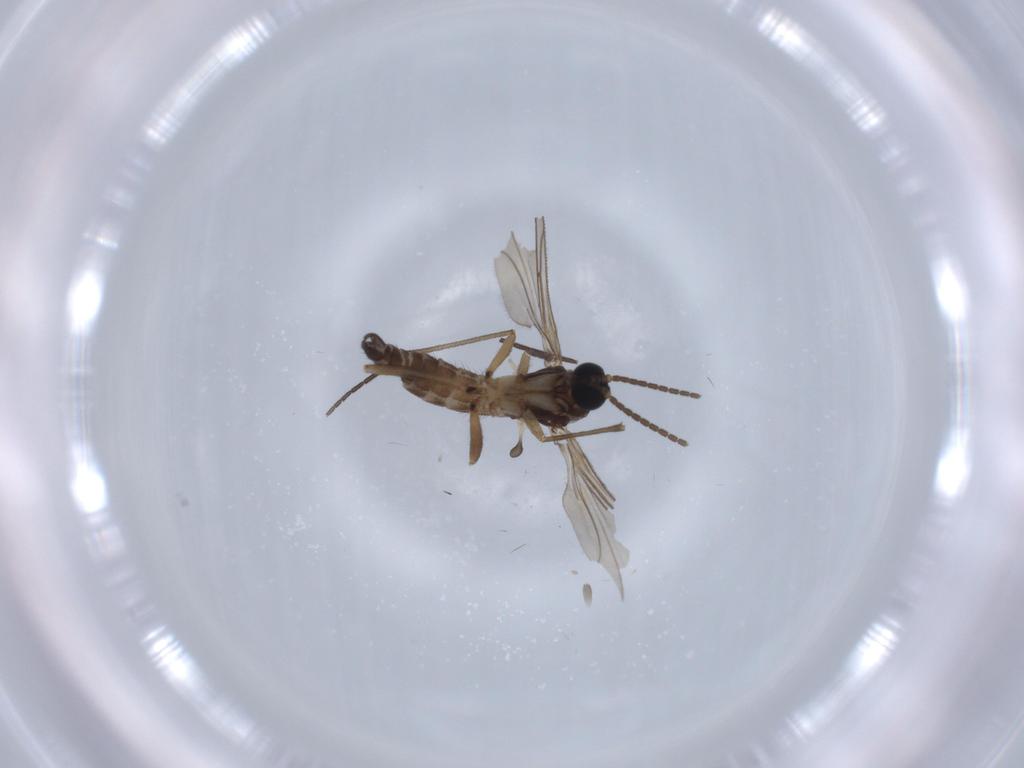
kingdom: Animalia
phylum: Arthropoda
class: Insecta
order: Diptera
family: Tabanidae
